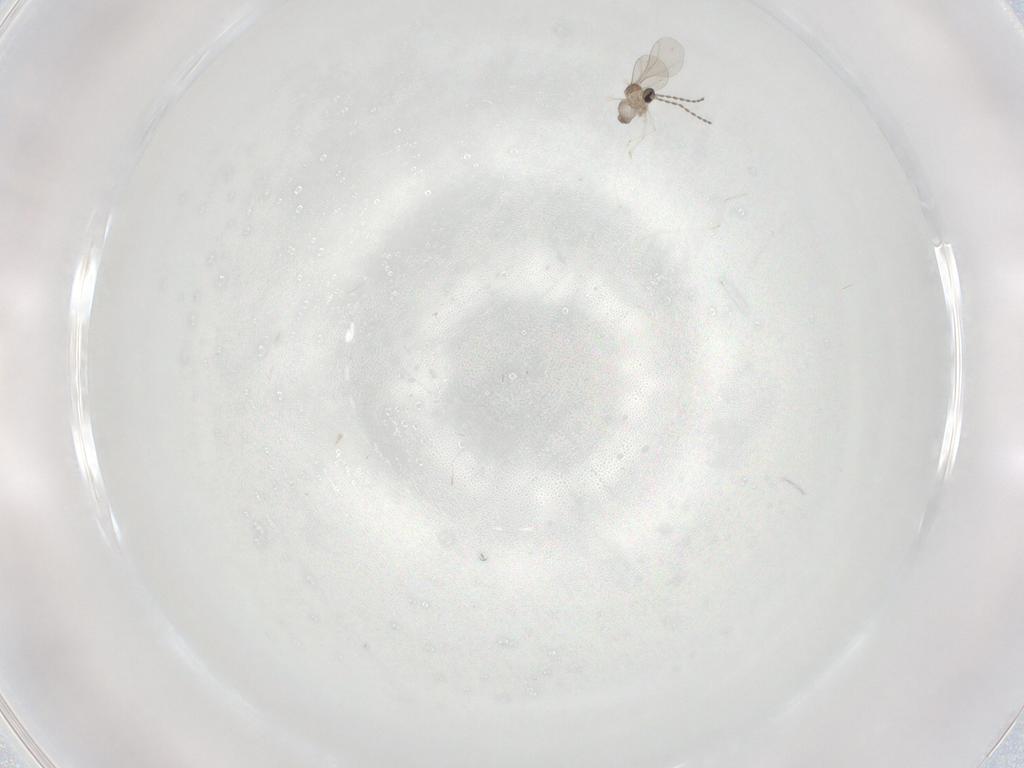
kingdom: Animalia
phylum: Arthropoda
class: Insecta
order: Diptera
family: Cecidomyiidae
